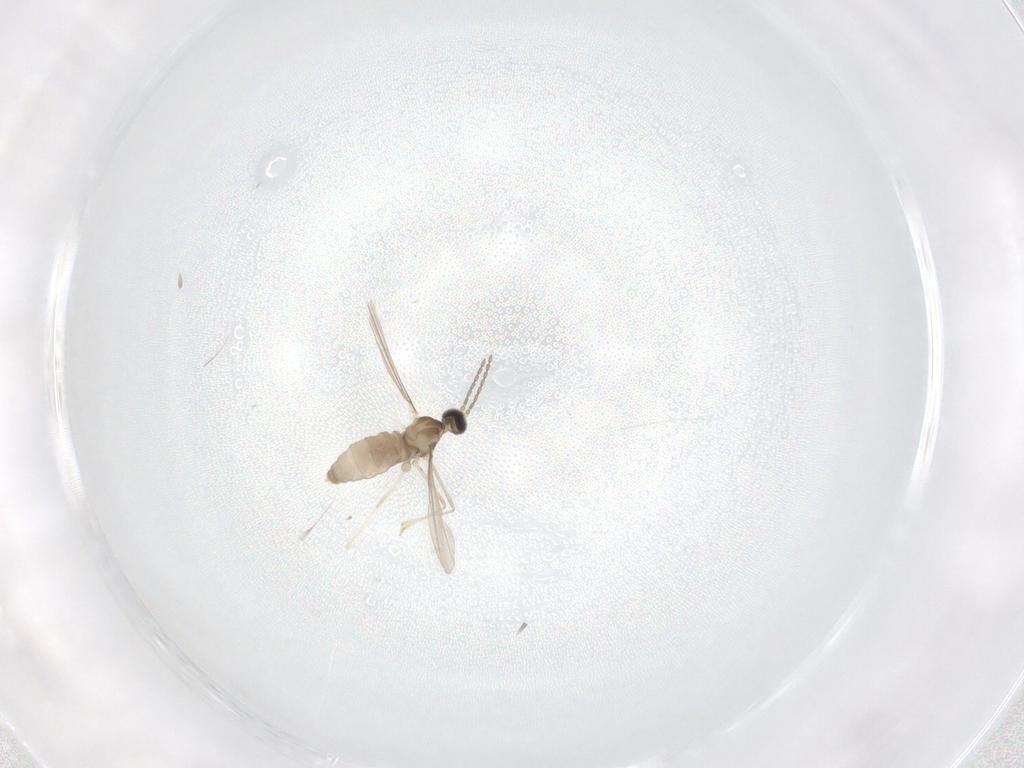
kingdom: Animalia
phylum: Arthropoda
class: Insecta
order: Diptera
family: Cecidomyiidae
